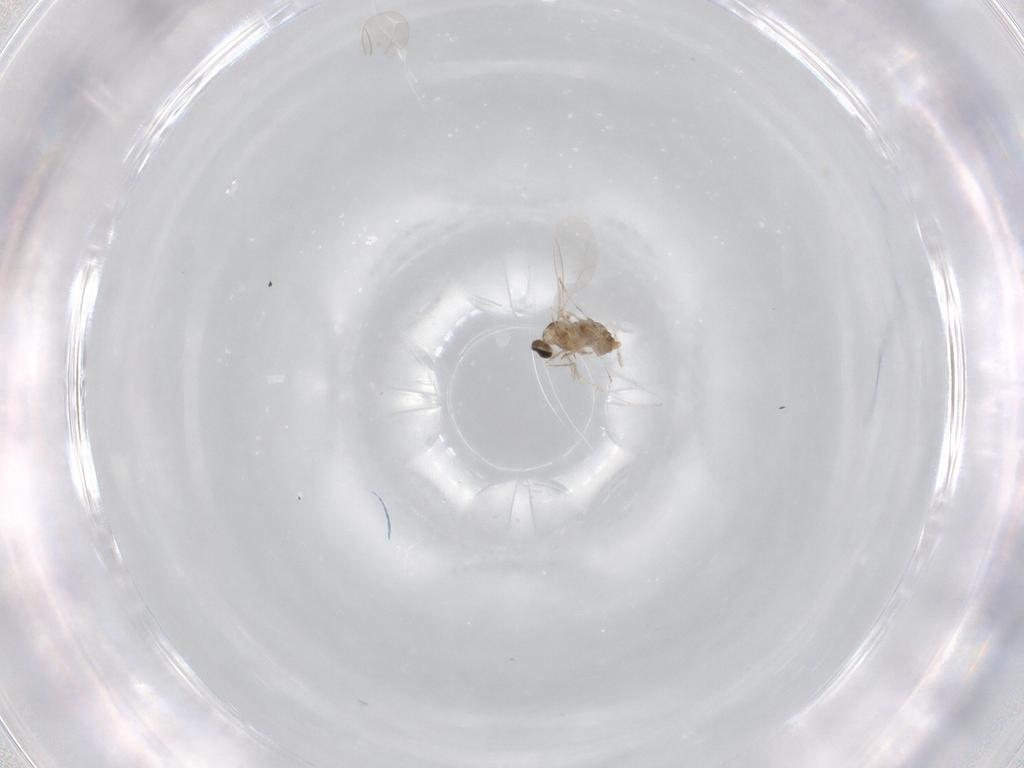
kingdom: Animalia
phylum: Arthropoda
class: Insecta
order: Diptera
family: Cecidomyiidae
